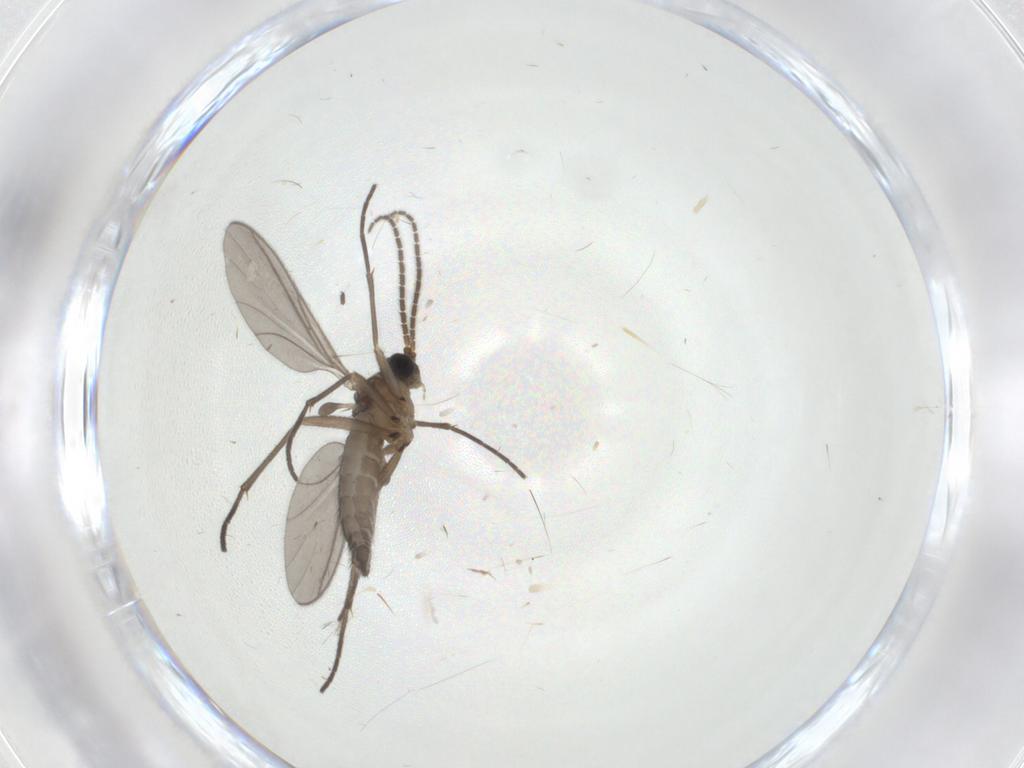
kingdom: Animalia
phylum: Arthropoda
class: Insecta
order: Diptera
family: Sciaridae
